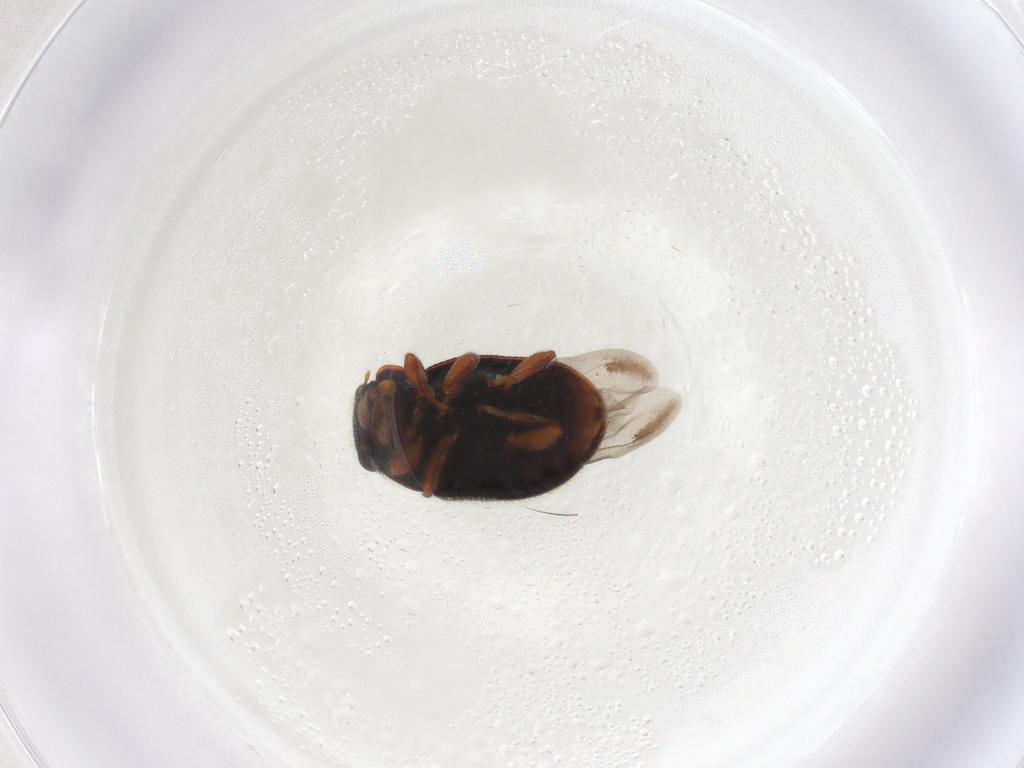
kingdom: Animalia
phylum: Arthropoda
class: Insecta
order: Coleoptera
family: Coccinellidae
